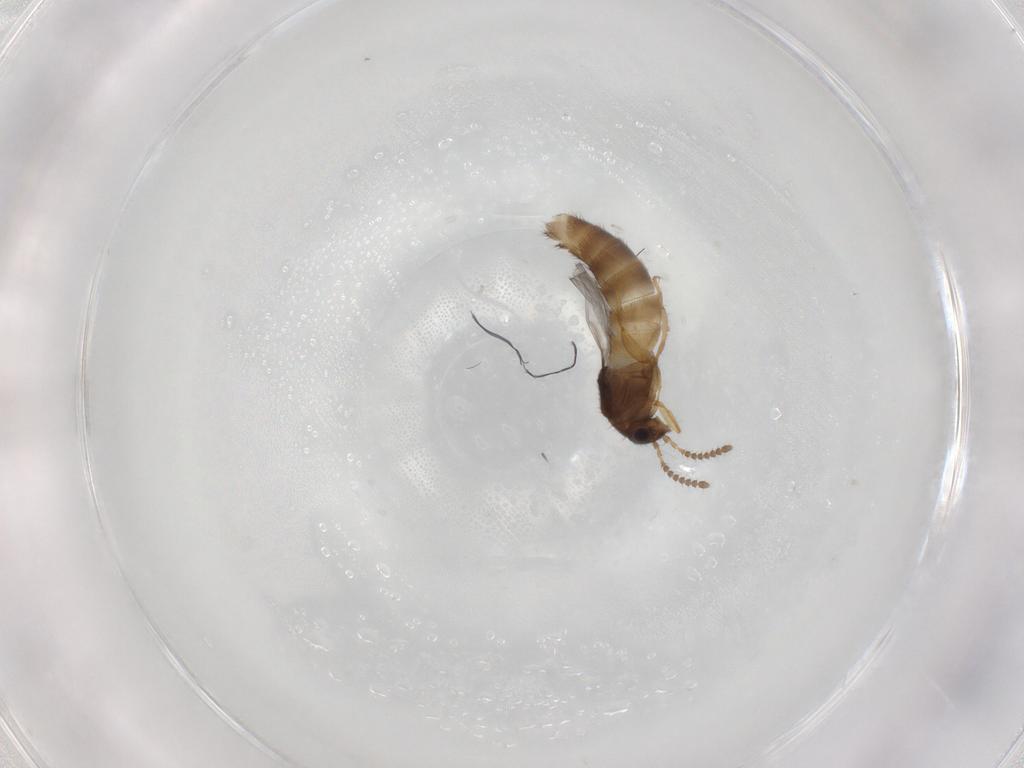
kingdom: Animalia
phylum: Arthropoda
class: Insecta
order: Coleoptera
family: Staphylinidae
